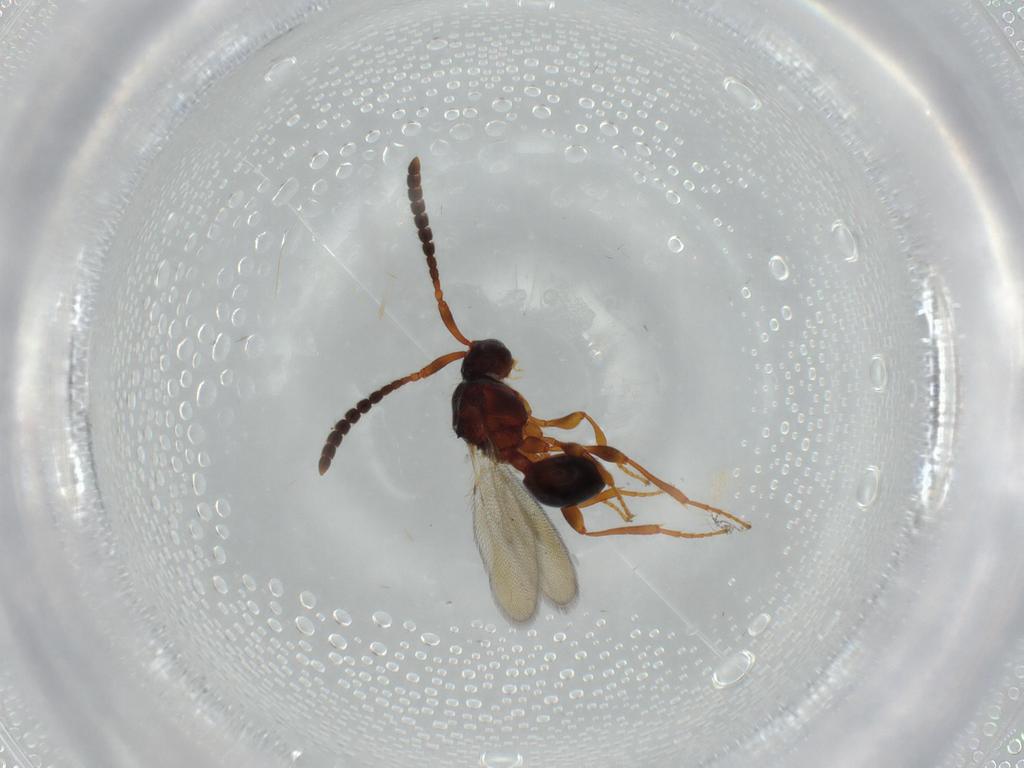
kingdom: Animalia
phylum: Arthropoda
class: Insecta
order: Hymenoptera
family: Diapriidae
